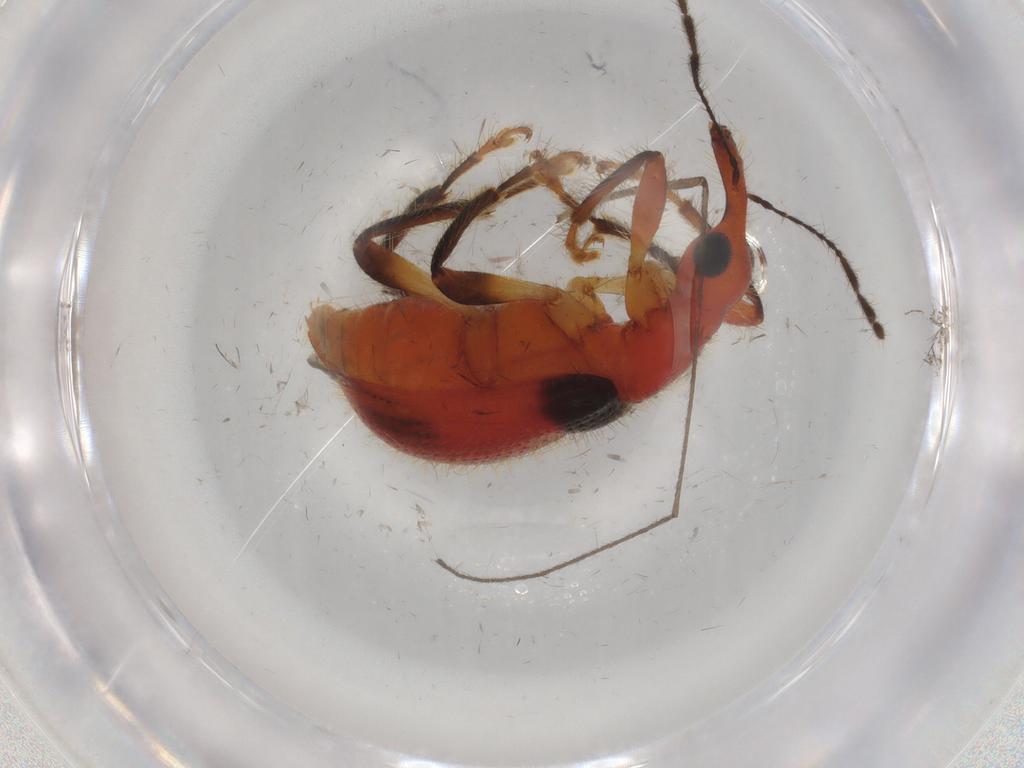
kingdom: Animalia
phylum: Arthropoda
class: Insecta
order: Coleoptera
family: Attelabidae
